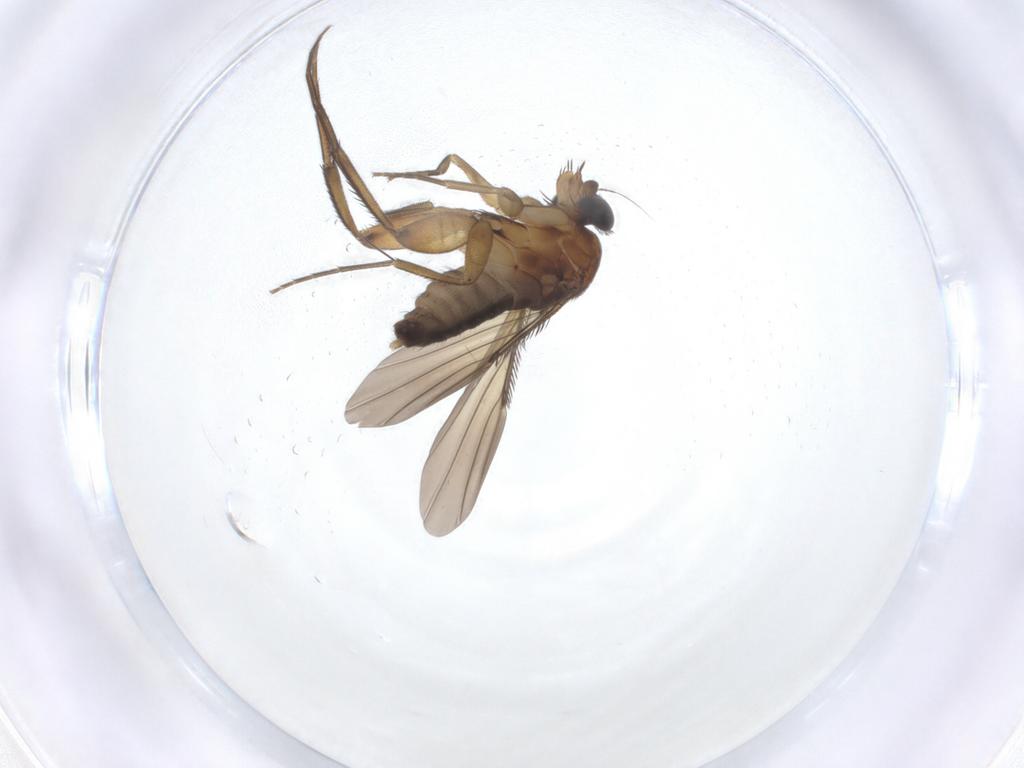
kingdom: Animalia
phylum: Arthropoda
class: Insecta
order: Diptera
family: Phoridae
